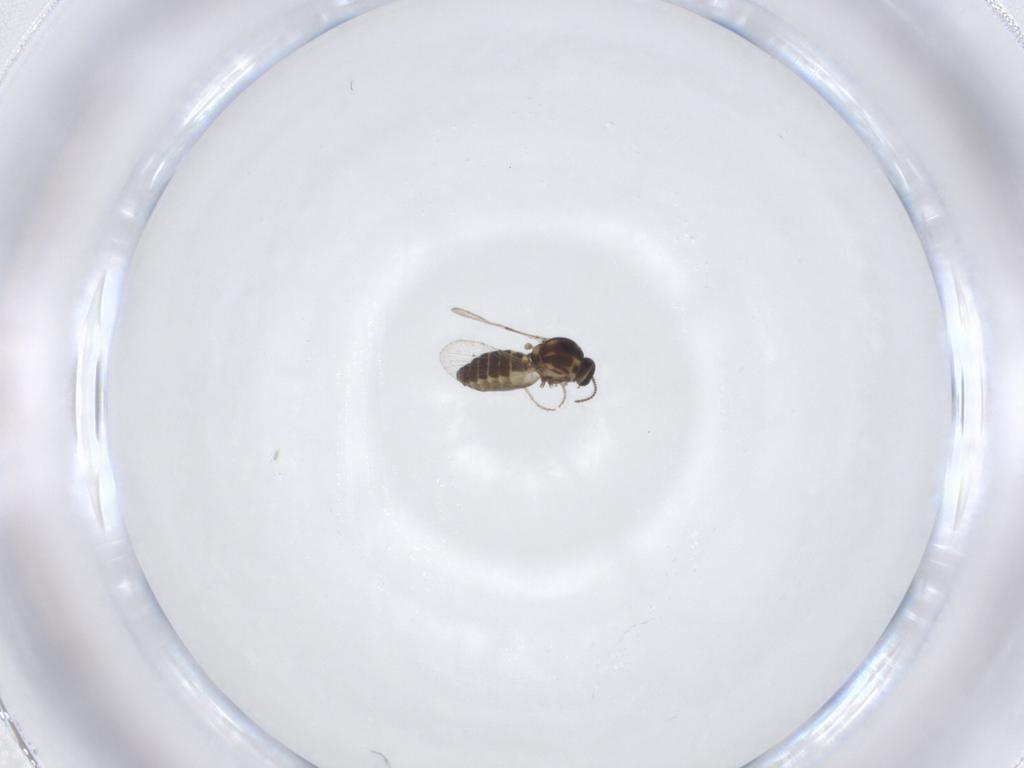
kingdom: Animalia
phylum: Arthropoda
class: Insecta
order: Diptera
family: Ceratopogonidae
